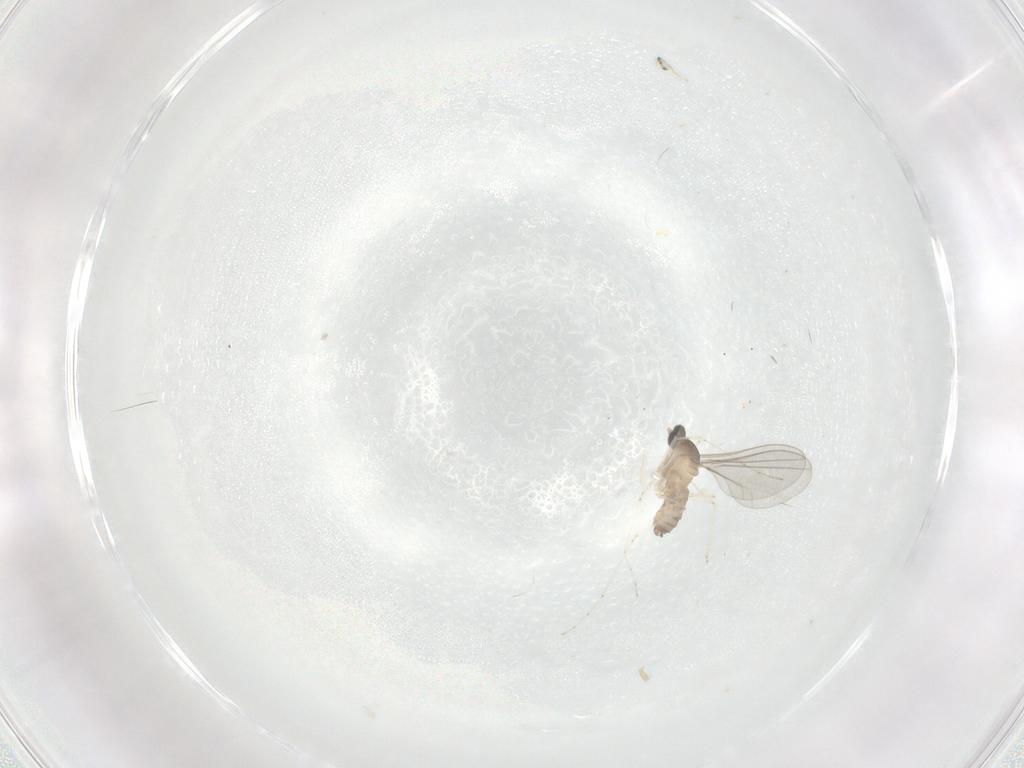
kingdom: Animalia
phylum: Arthropoda
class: Insecta
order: Diptera
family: Cecidomyiidae
